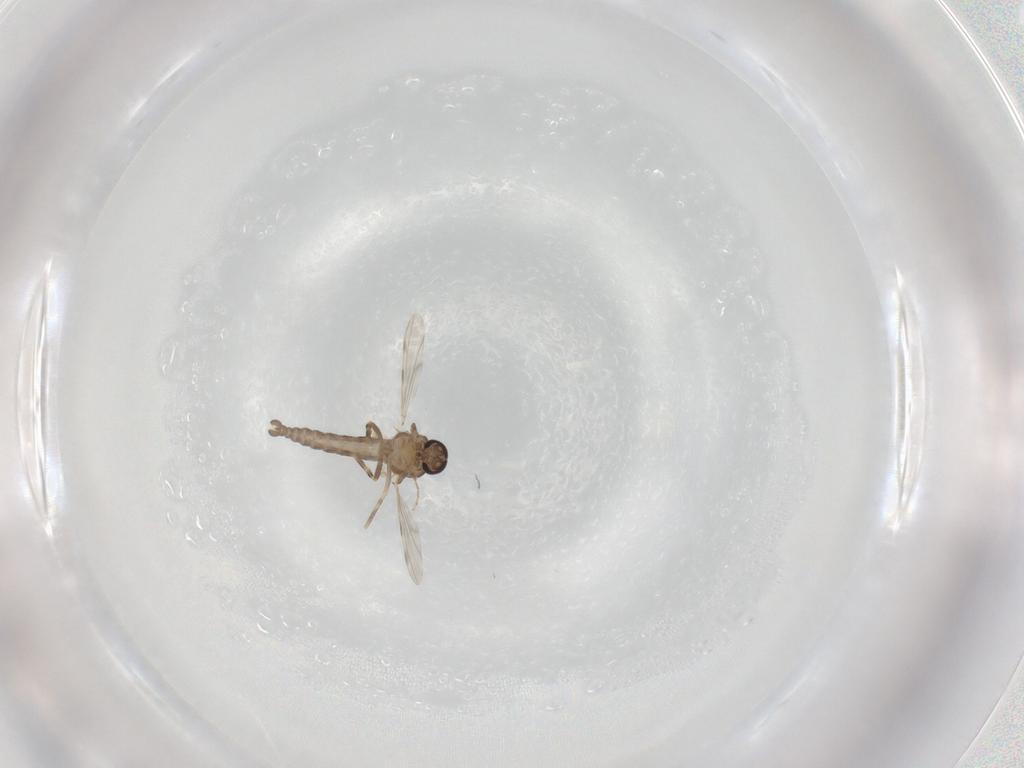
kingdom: Animalia
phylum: Arthropoda
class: Insecta
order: Diptera
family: Ceratopogonidae
